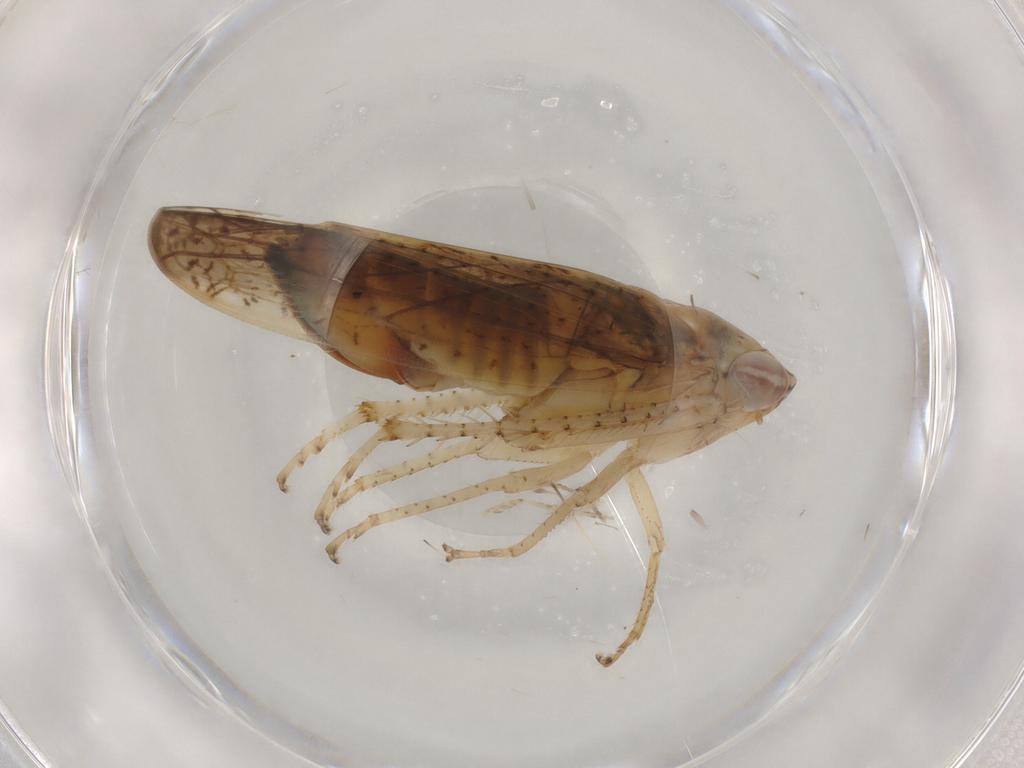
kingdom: Animalia
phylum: Arthropoda
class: Insecta
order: Hemiptera
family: Cicadellidae
